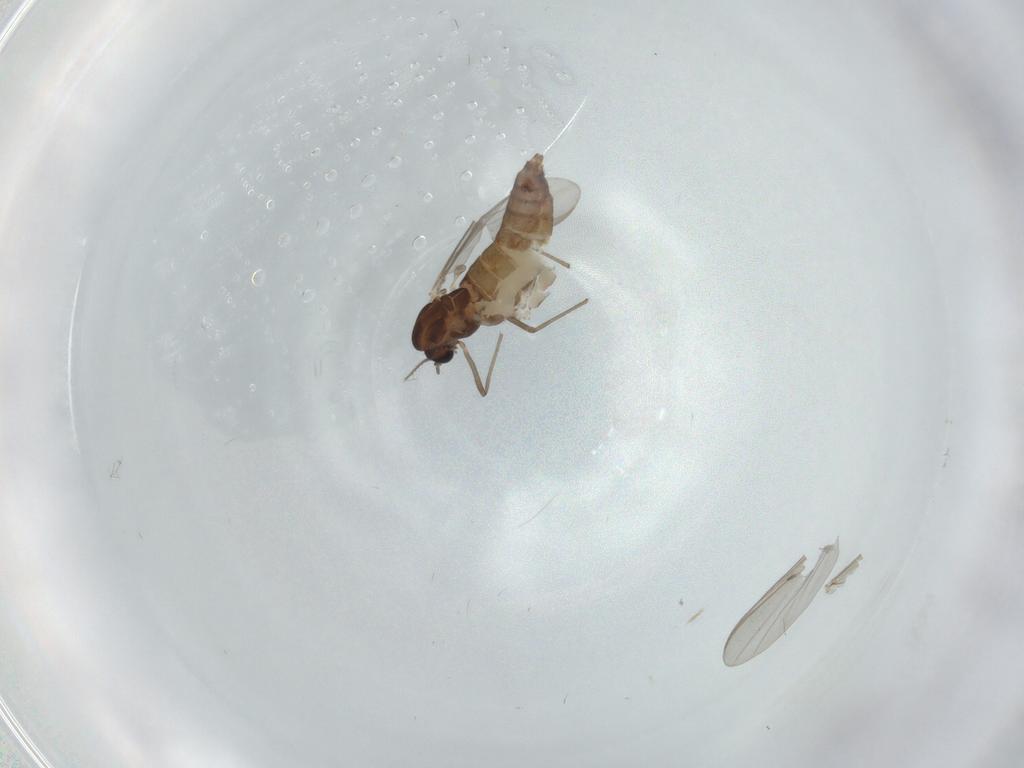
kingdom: Animalia
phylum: Arthropoda
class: Insecta
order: Diptera
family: Chironomidae
